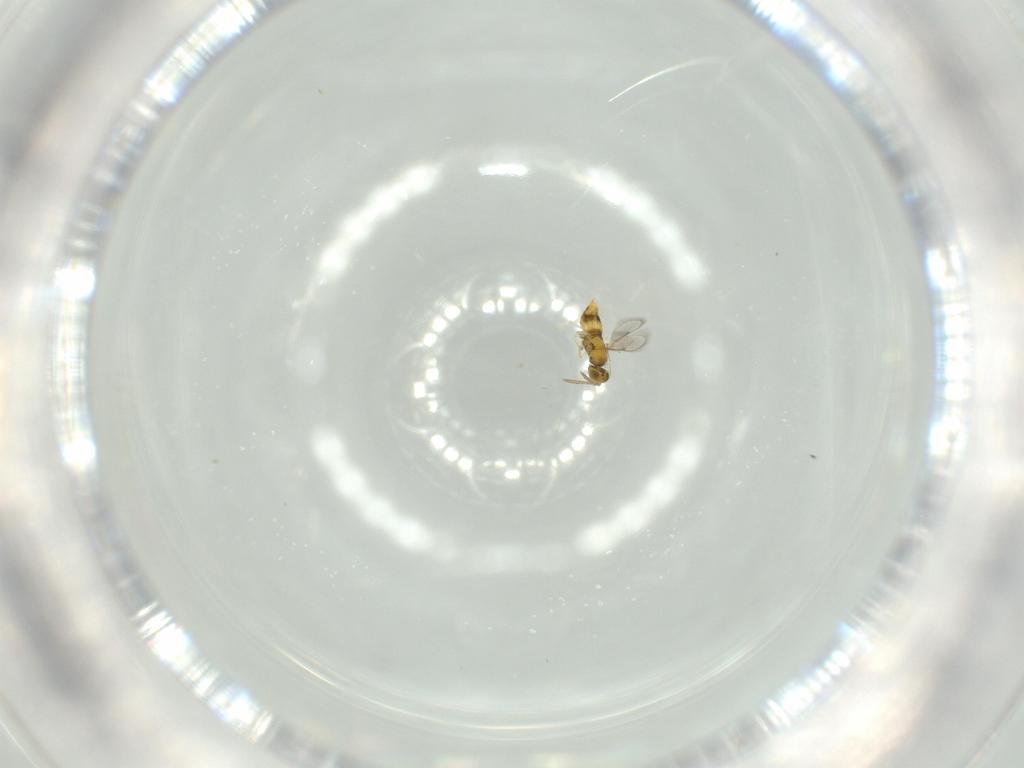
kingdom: Animalia
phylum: Arthropoda
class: Insecta
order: Hymenoptera
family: Aphelinidae
